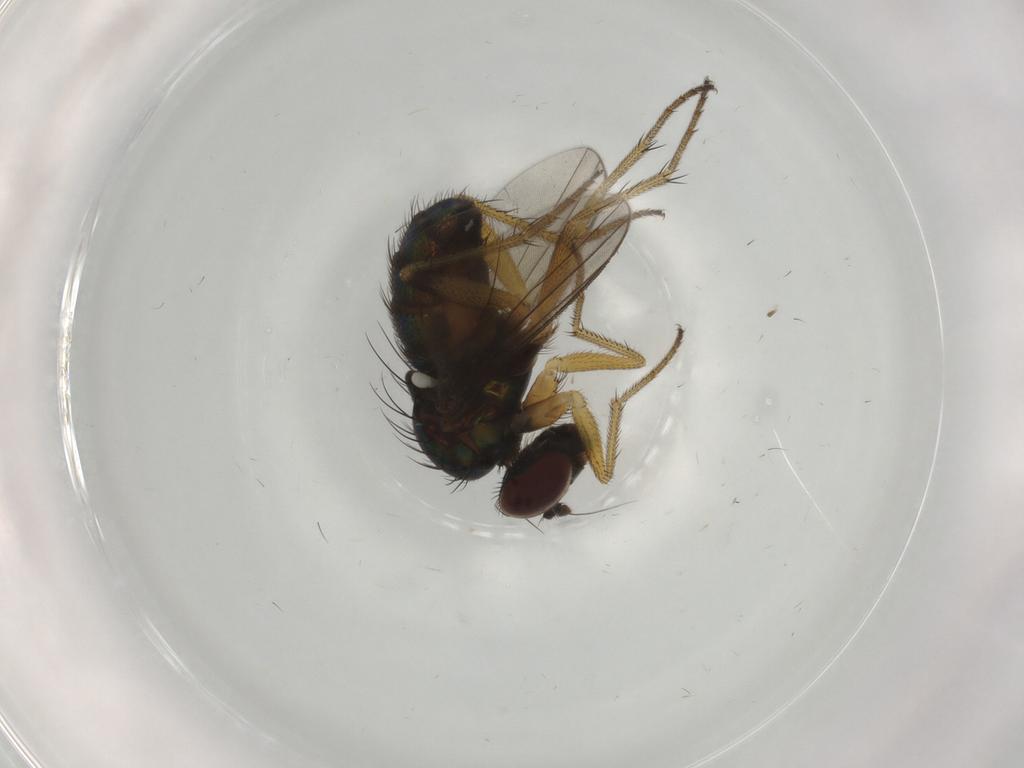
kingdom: Animalia
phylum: Arthropoda
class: Insecta
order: Diptera
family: Dolichopodidae
